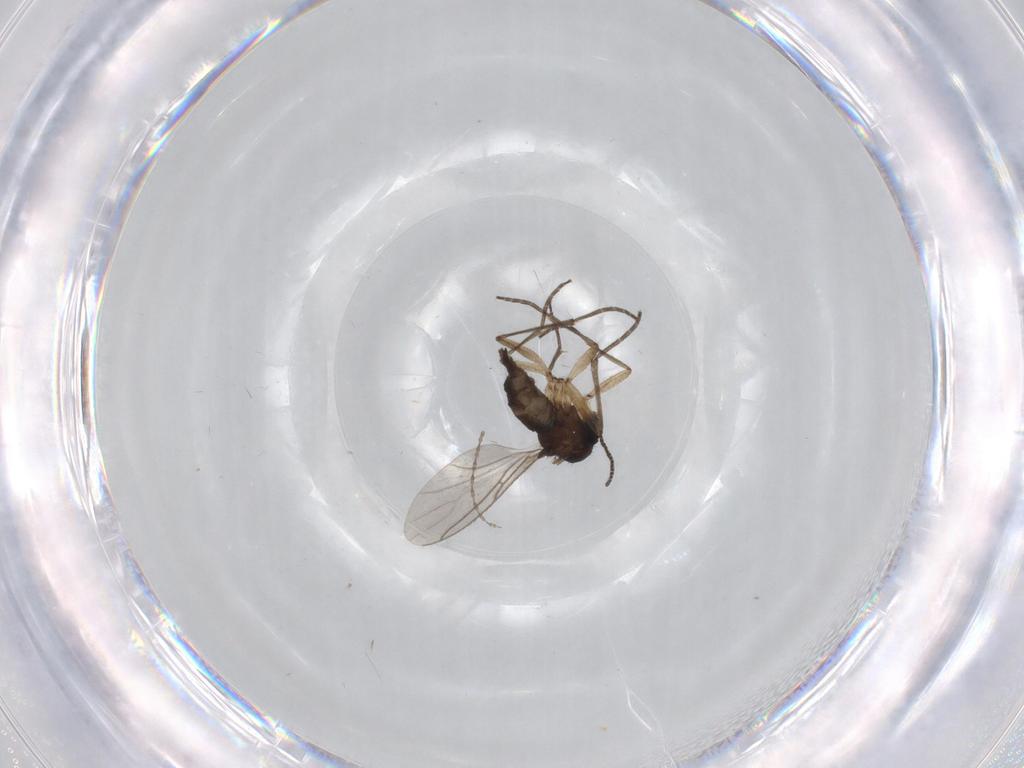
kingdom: Animalia
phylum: Arthropoda
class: Insecta
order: Diptera
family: Sciaridae
